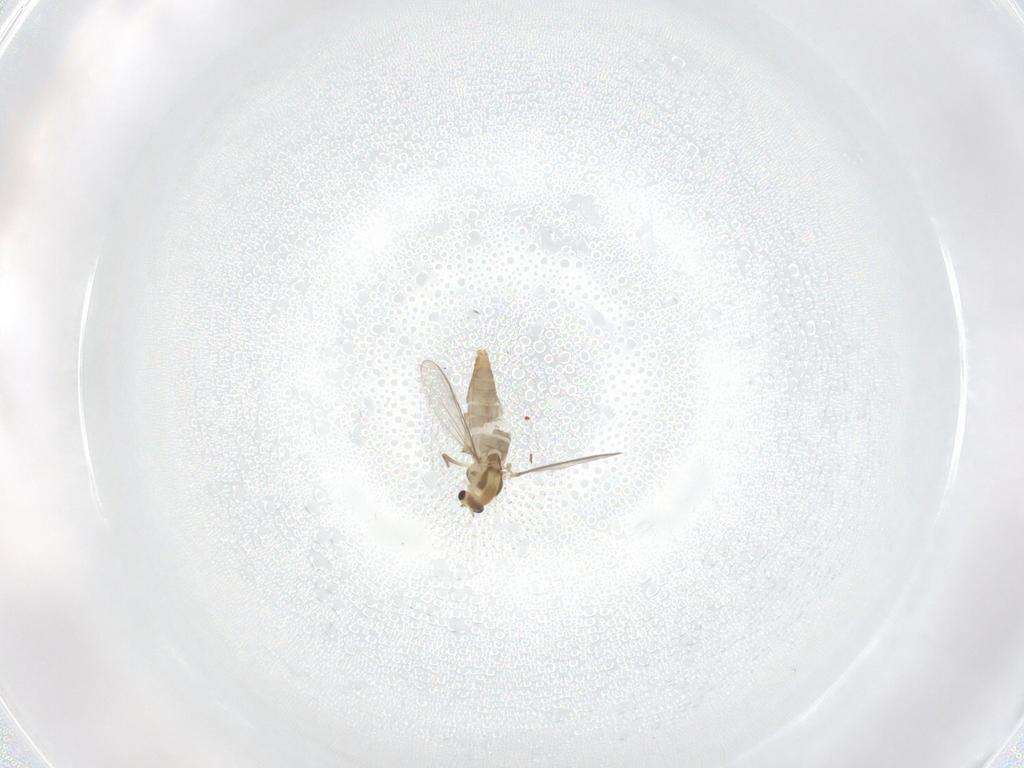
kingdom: Animalia
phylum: Arthropoda
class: Insecta
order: Diptera
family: Chironomidae
